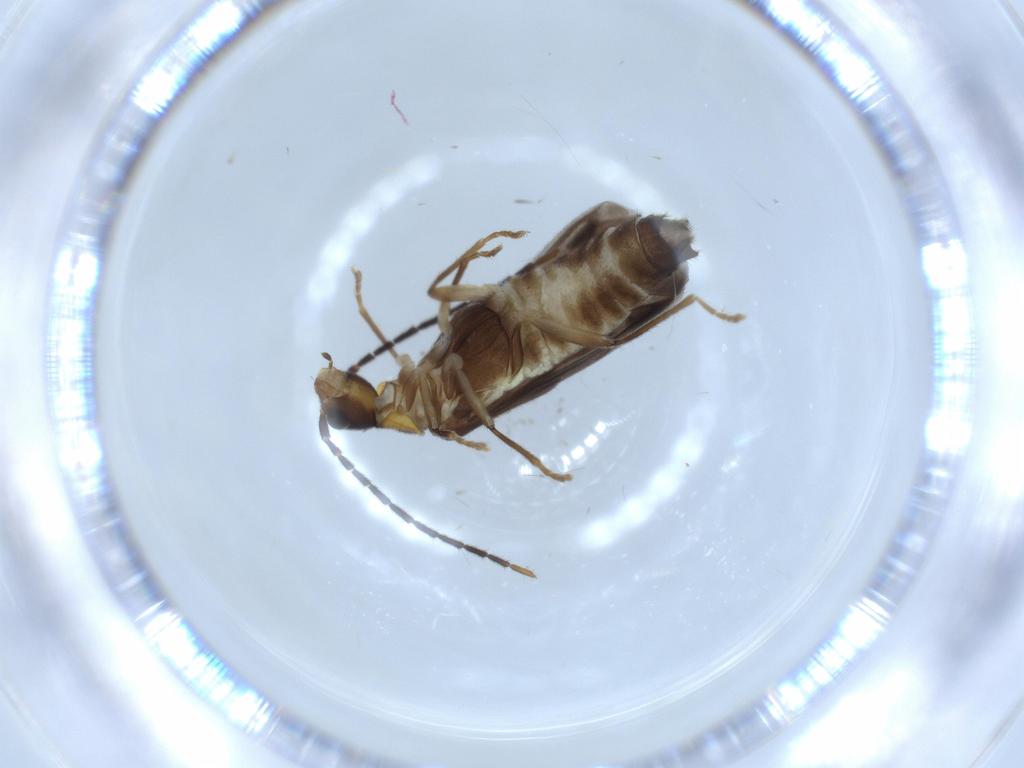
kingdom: Animalia
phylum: Arthropoda
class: Insecta
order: Coleoptera
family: Cantharidae
